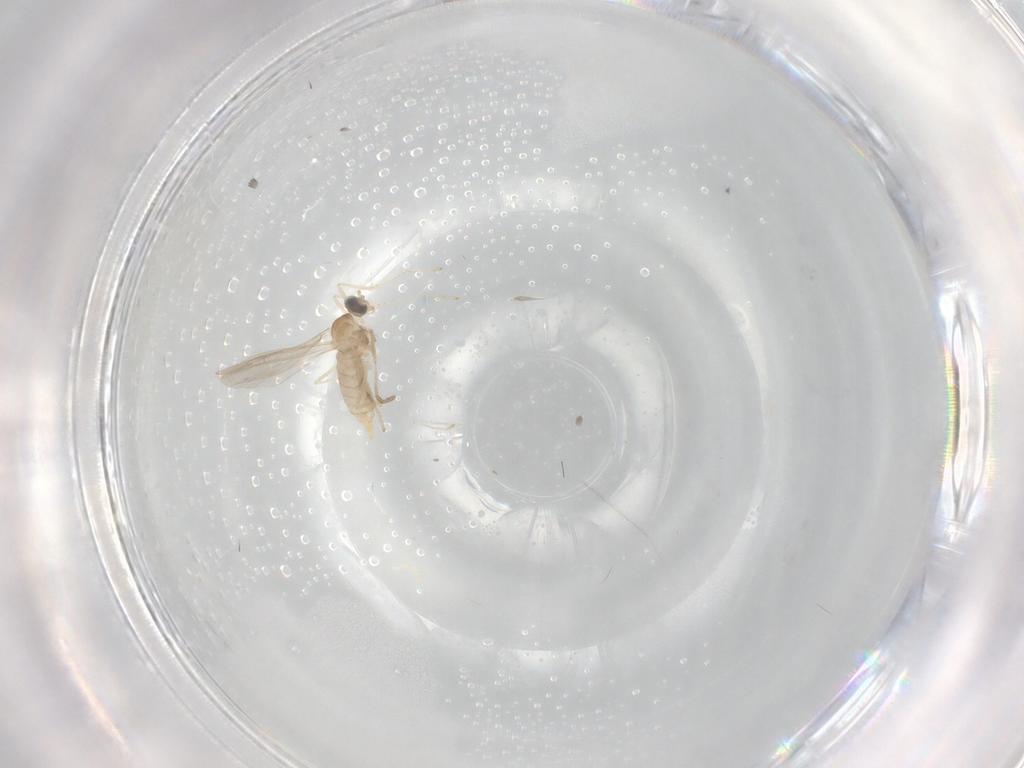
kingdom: Animalia
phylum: Arthropoda
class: Insecta
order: Diptera
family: Cecidomyiidae
